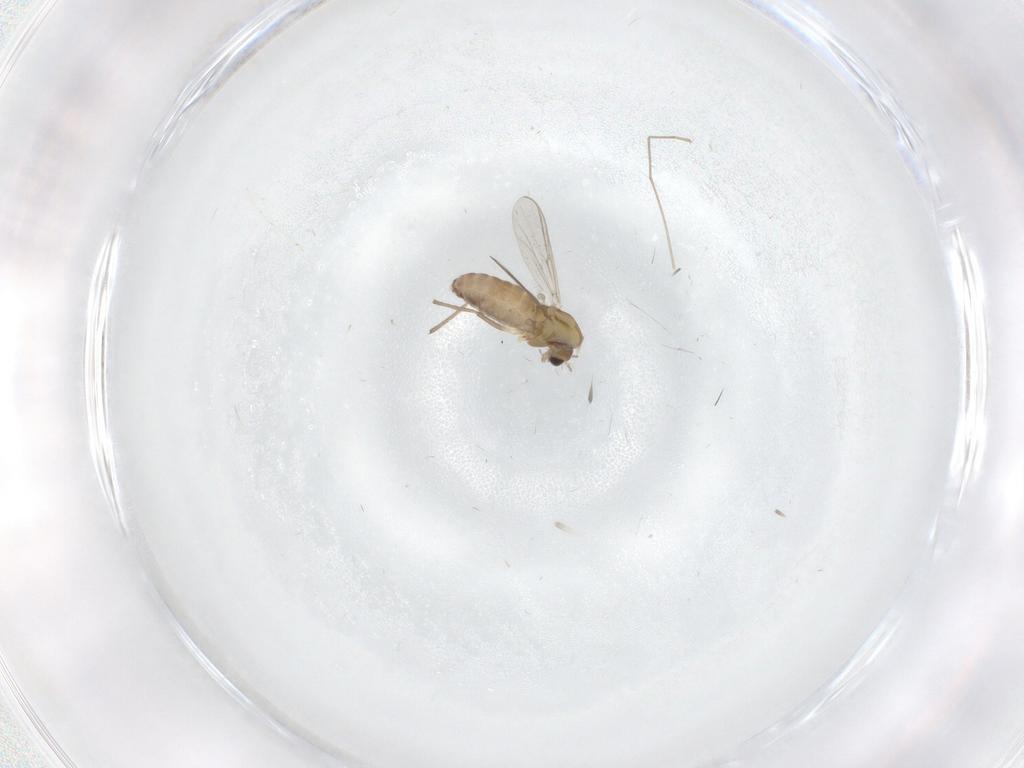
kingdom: Animalia
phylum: Arthropoda
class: Insecta
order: Diptera
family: Chironomidae
